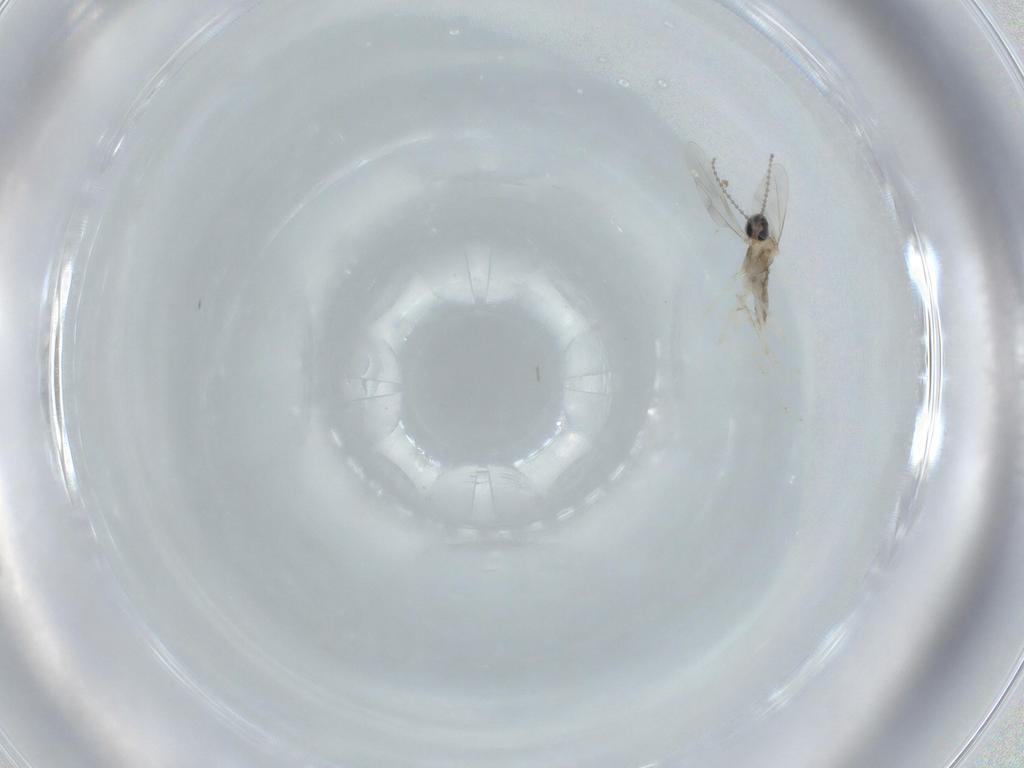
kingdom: Animalia
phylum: Arthropoda
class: Insecta
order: Diptera
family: Cecidomyiidae
